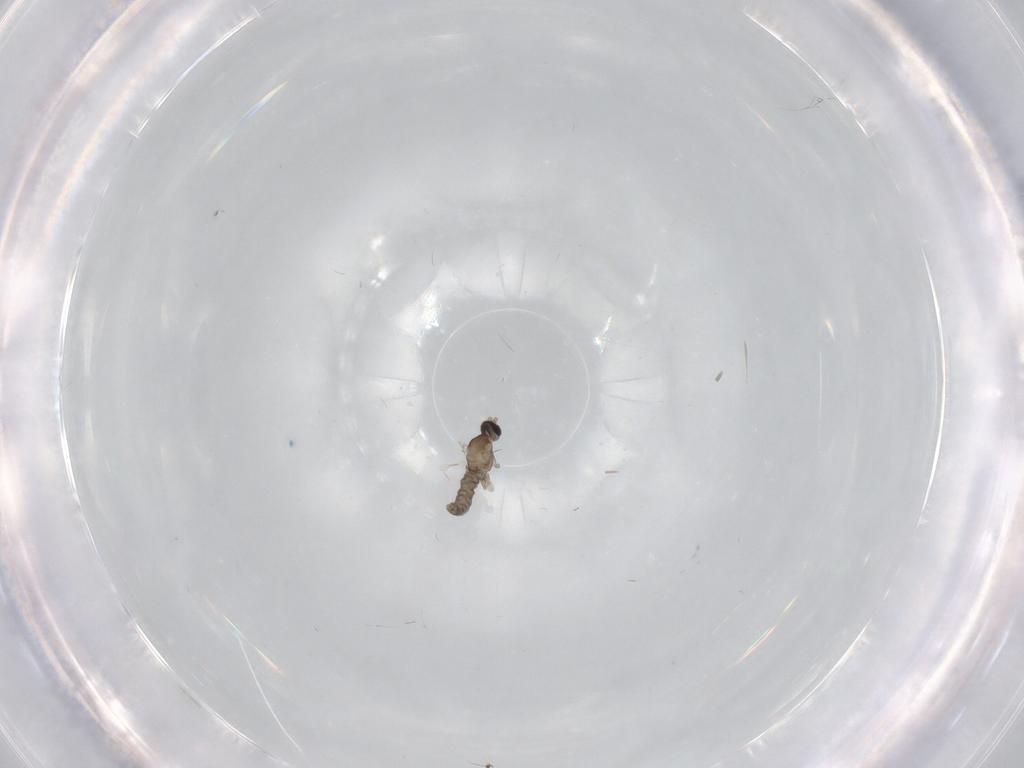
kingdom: Animalia
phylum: Arthropoda
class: Insecta
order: Diptera
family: Cecidomyiidae
